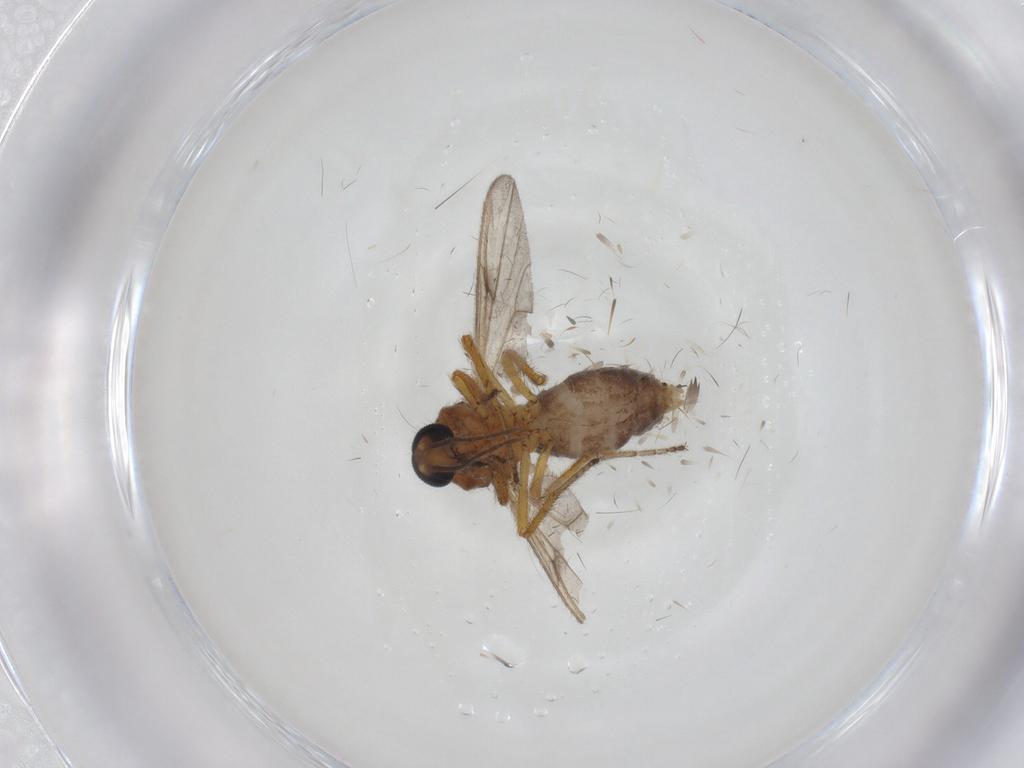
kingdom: Animalia
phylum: Arthropoda
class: Insecta
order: Diptera
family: Ceratopogonidae
